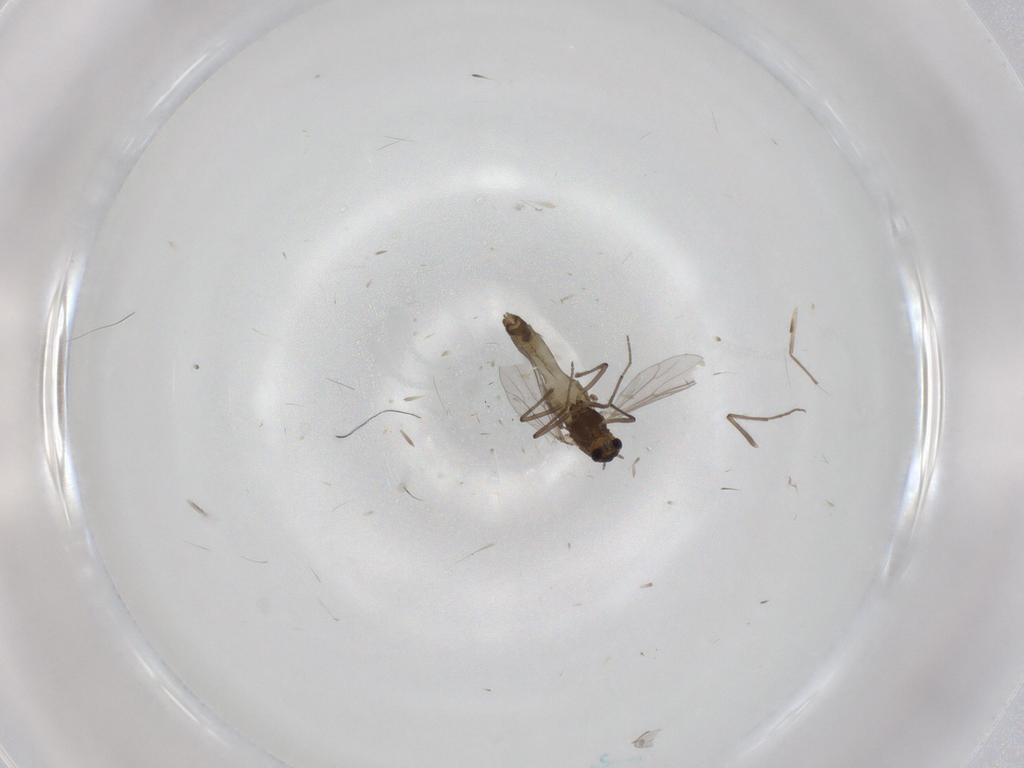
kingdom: Animalia
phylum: Arthropoda
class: Insecta
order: Diptera
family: Chironomidae
